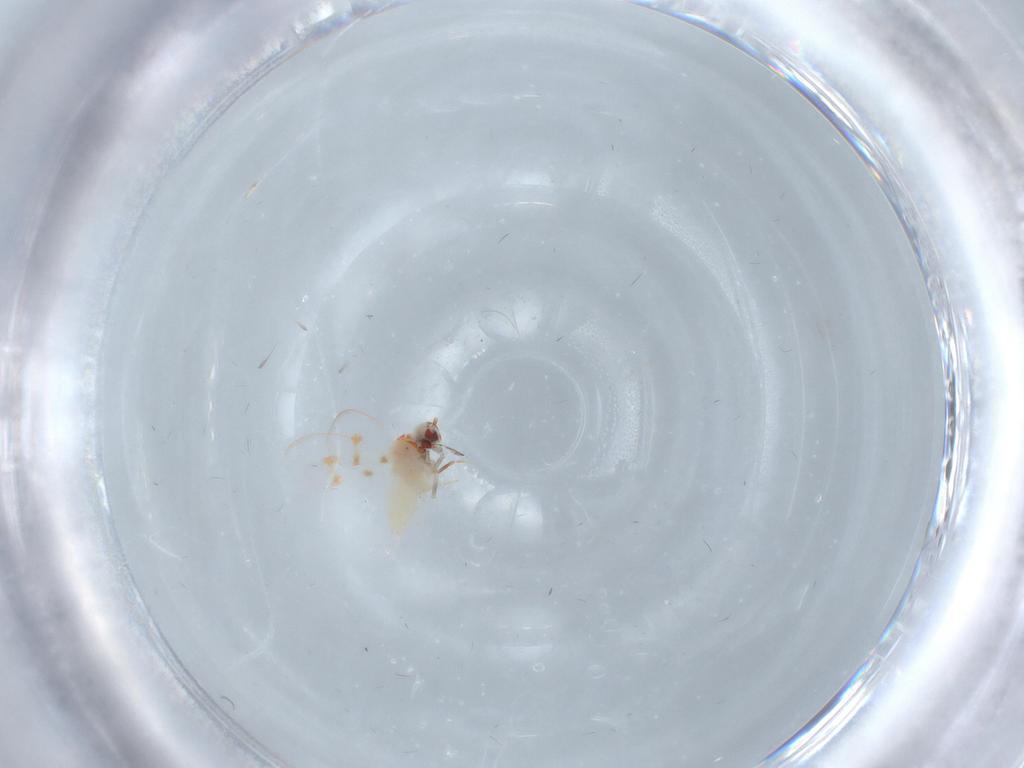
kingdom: Animalia
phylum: Arthropoda
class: Insecta
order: Hemiptera
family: Aleyrodidae
